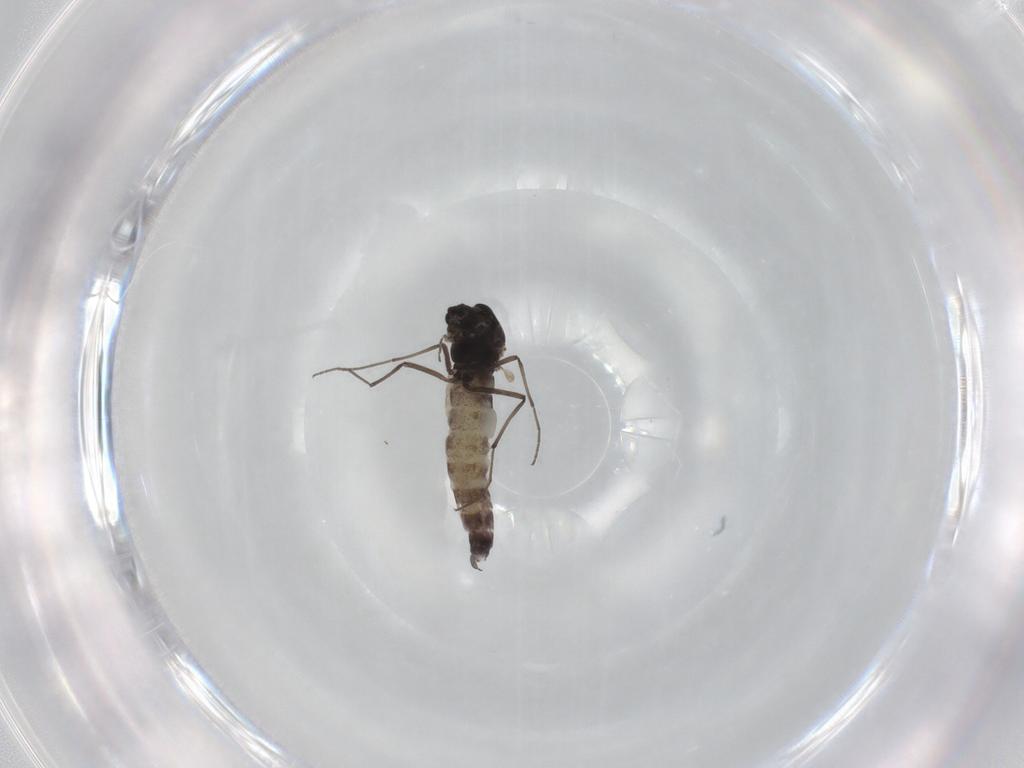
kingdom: Animalia
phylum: Arthropoda
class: Insecta
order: Diptera
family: Chironomidae
